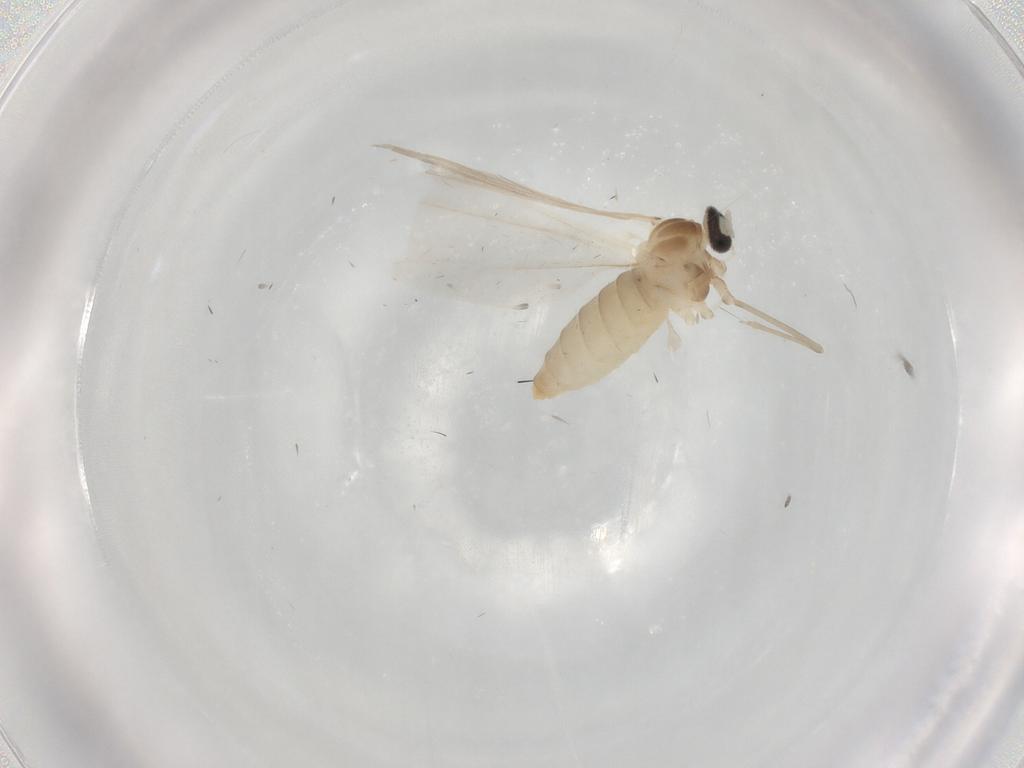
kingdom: Animalia
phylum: Arthropoda
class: Insecta
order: Diptera
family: Cecidomyiidae
